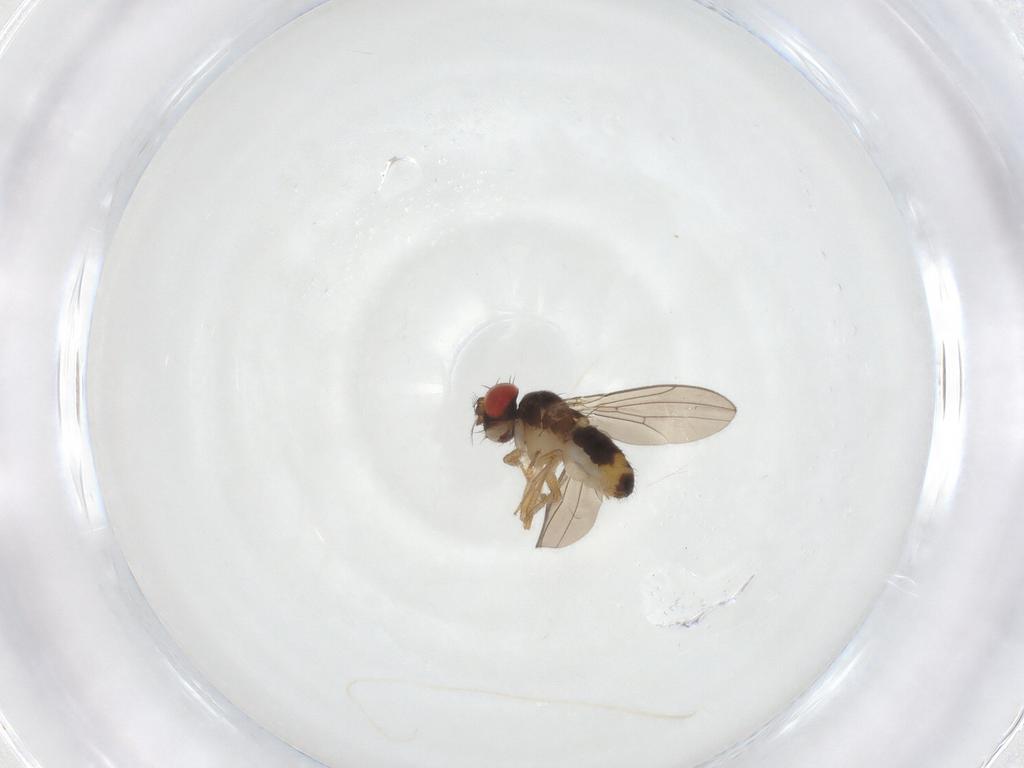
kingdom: Animalia
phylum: Arthropoda
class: Insecta
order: Diptera
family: Drosophilidae
